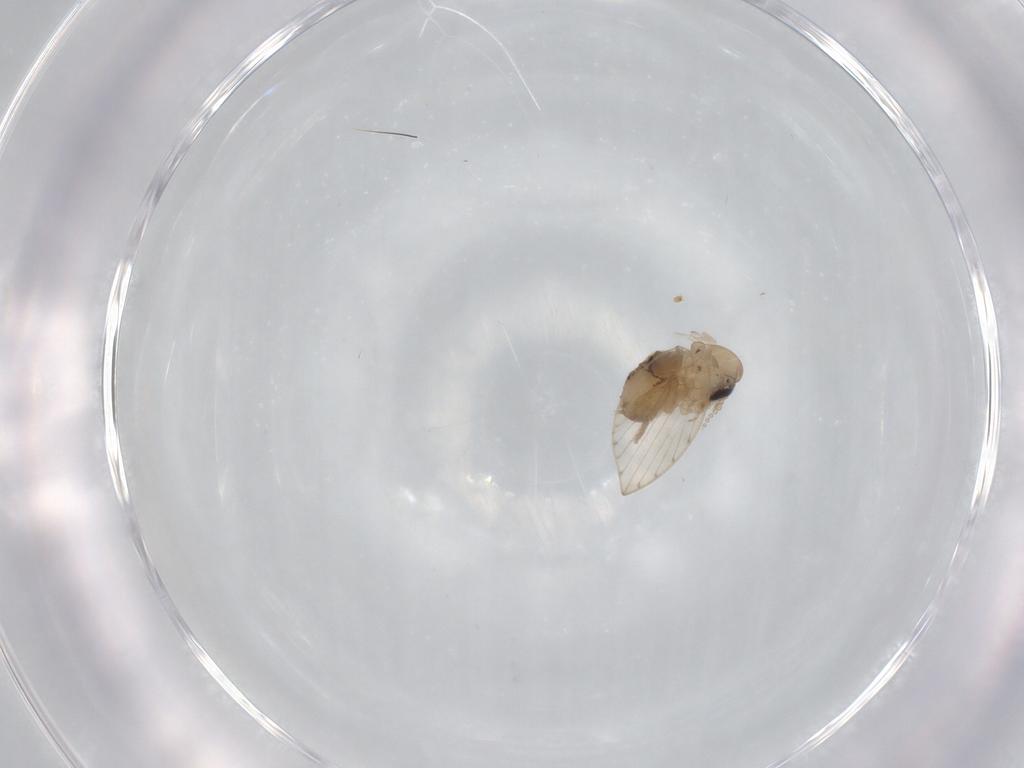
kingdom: Animalia
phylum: Arthropoda
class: Insecta
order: Diptera
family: Psychodidae
